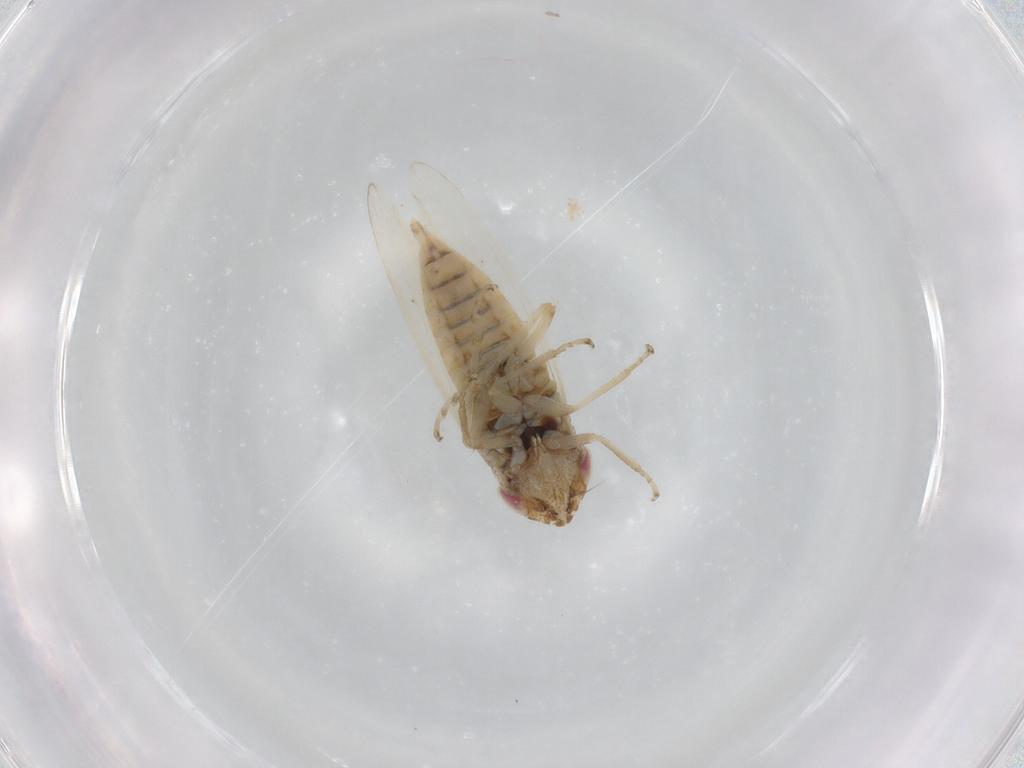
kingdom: Animalia
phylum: Arthropoda
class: Insecta
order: Hemiptera
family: Cicadellidae
